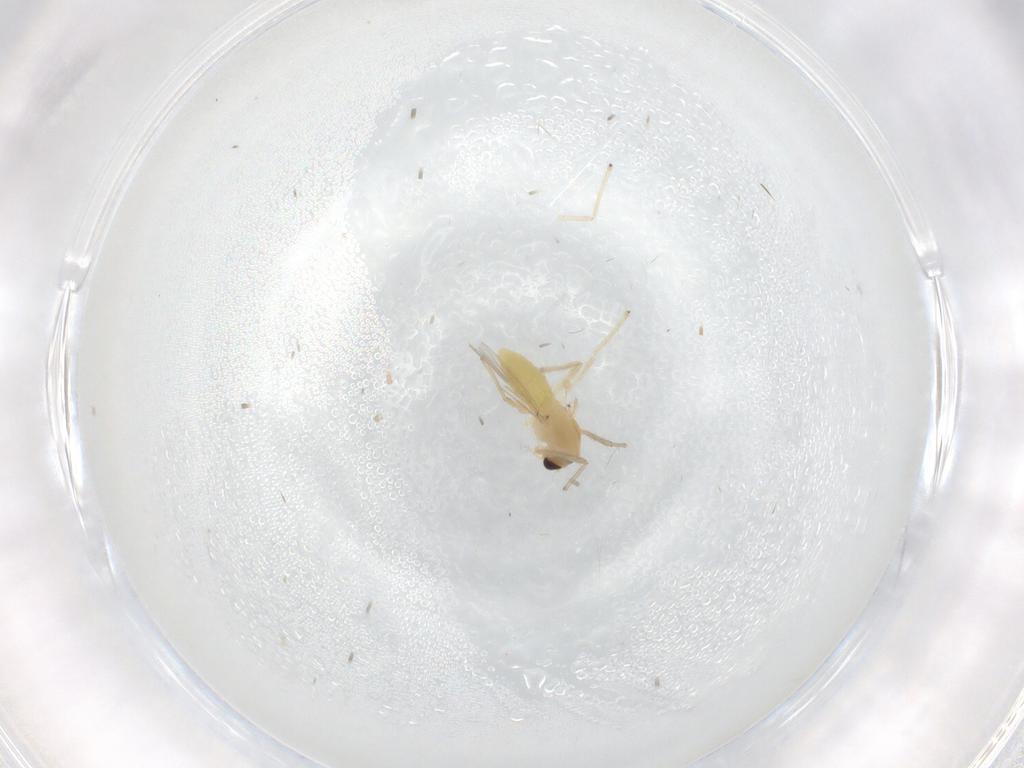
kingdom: Animalia
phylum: Arthropoda
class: Insecta
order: Diptera
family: Chironomidae
